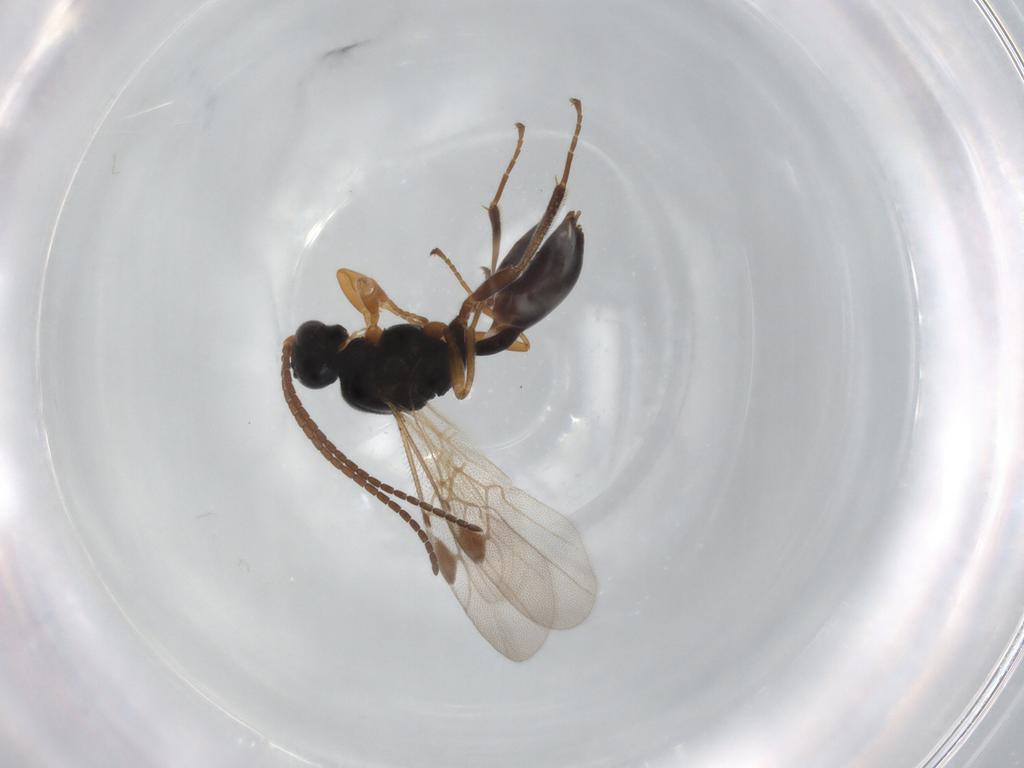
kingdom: Animalia
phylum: Arthropoda
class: Insecta
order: Hymenoptera
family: Braconidae
